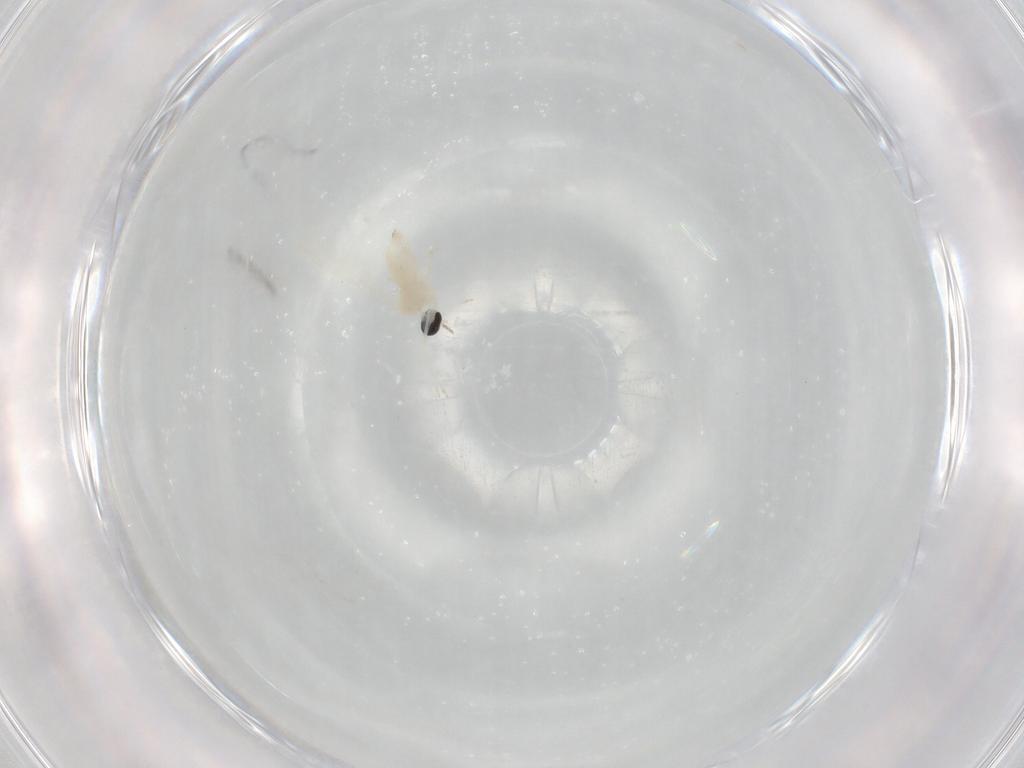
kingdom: Animalia
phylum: Arthropoda
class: Insecta
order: Diptera
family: Cecidomyiidae
